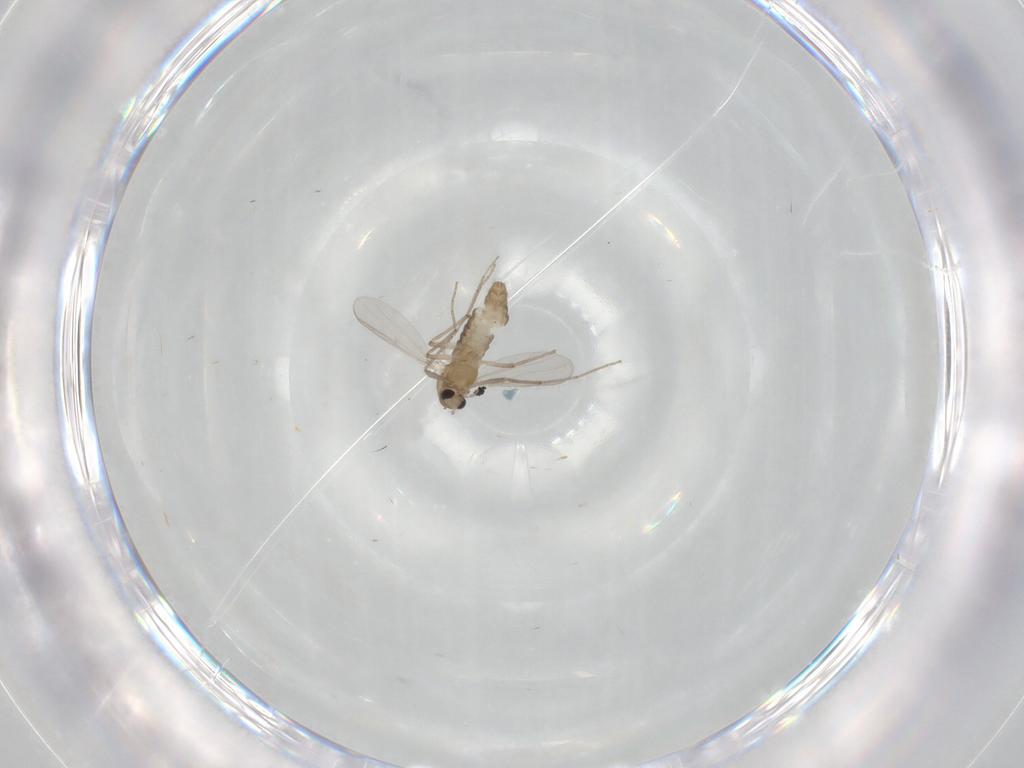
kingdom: Animalia
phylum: Arthropoda
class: Insecta
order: Diptera
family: Chironomidae
